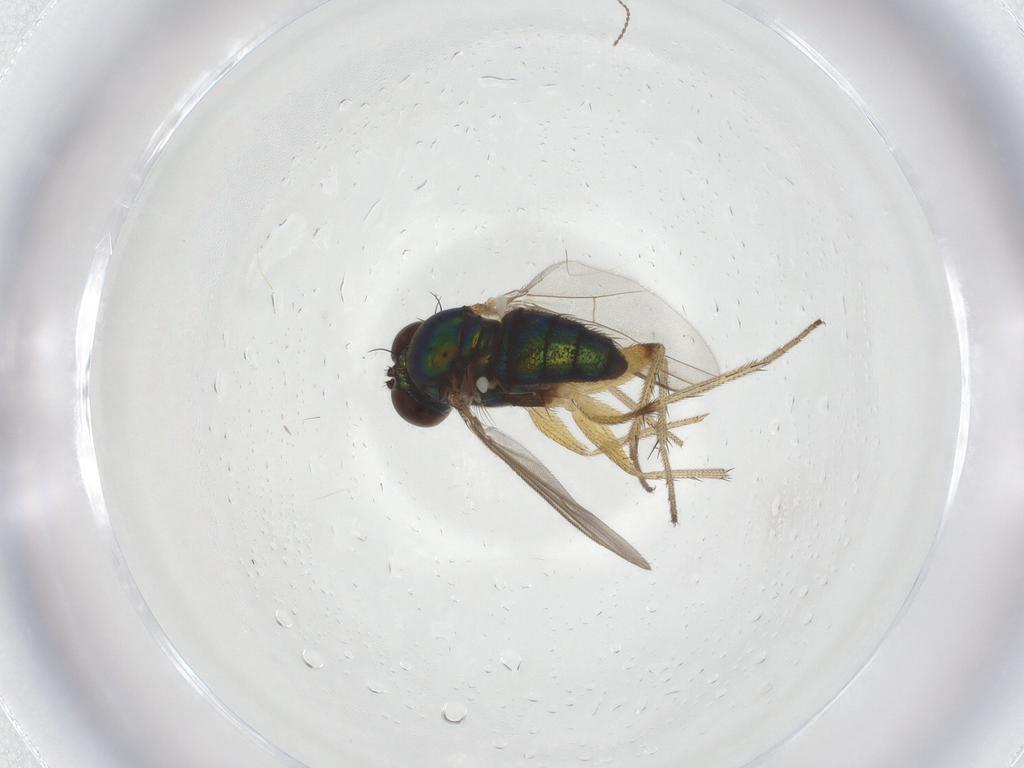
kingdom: Animalia
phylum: Arthropoda
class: Insecta
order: Diptera
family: Dolichopodidae
